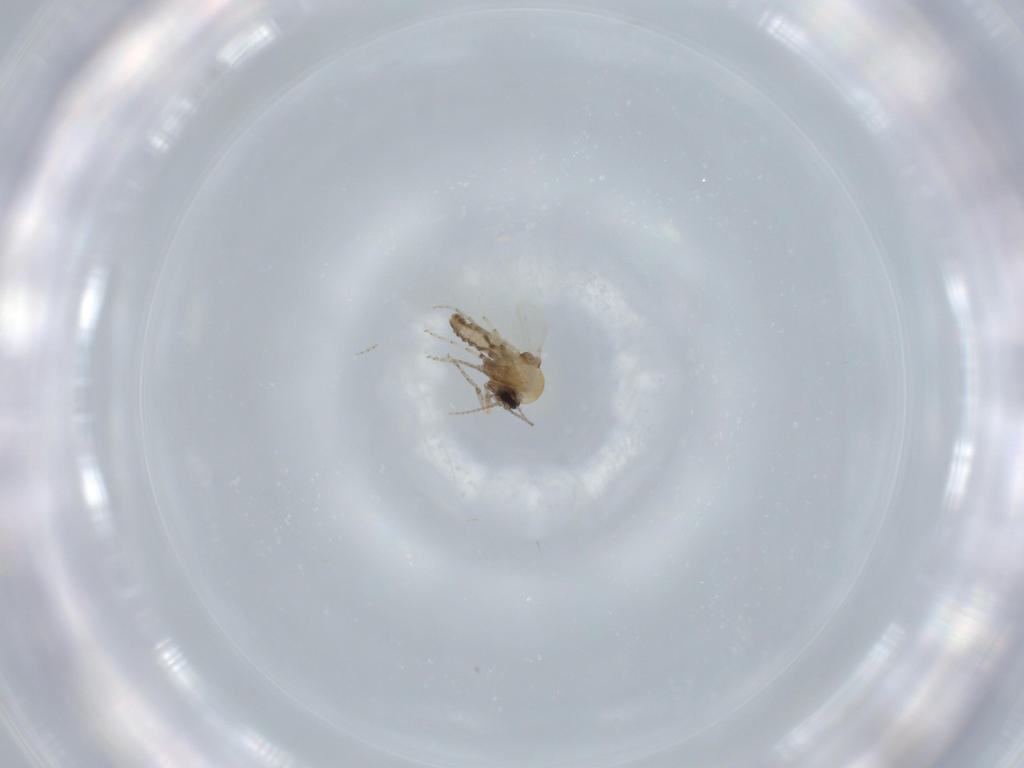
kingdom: Animalia
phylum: Arthropoda
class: Insecta
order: Diptera
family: Ceratopogonidae
